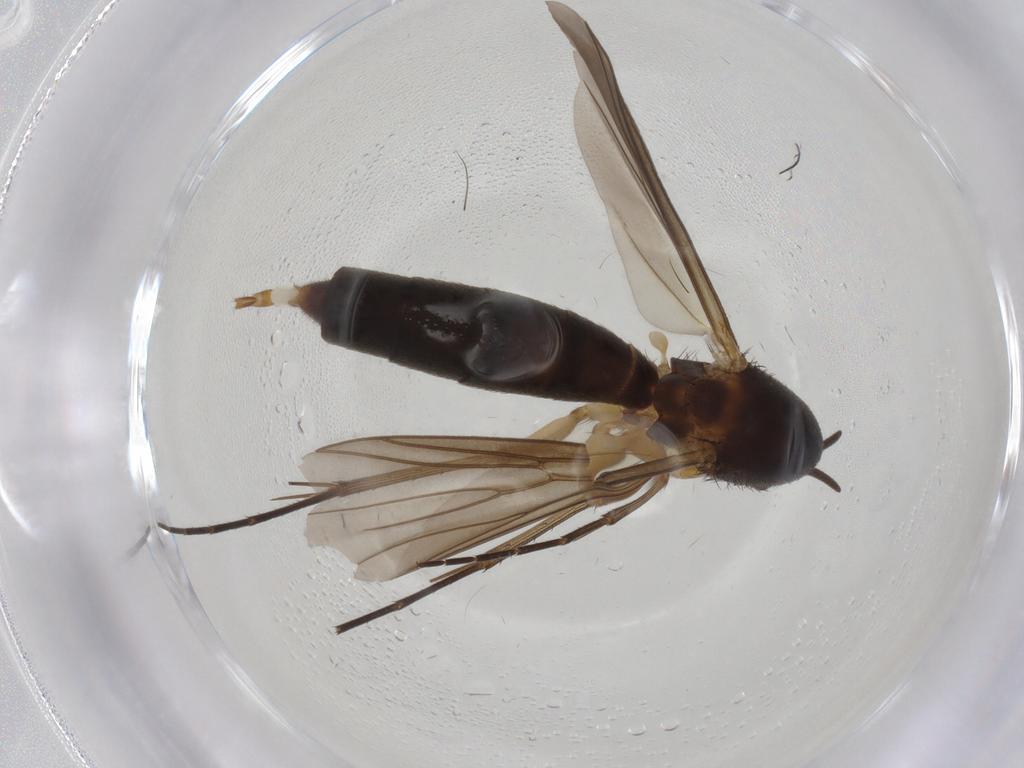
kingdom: Animalia
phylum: Arthropoda
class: Insecta
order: Diptera
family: Mycetophilidae
